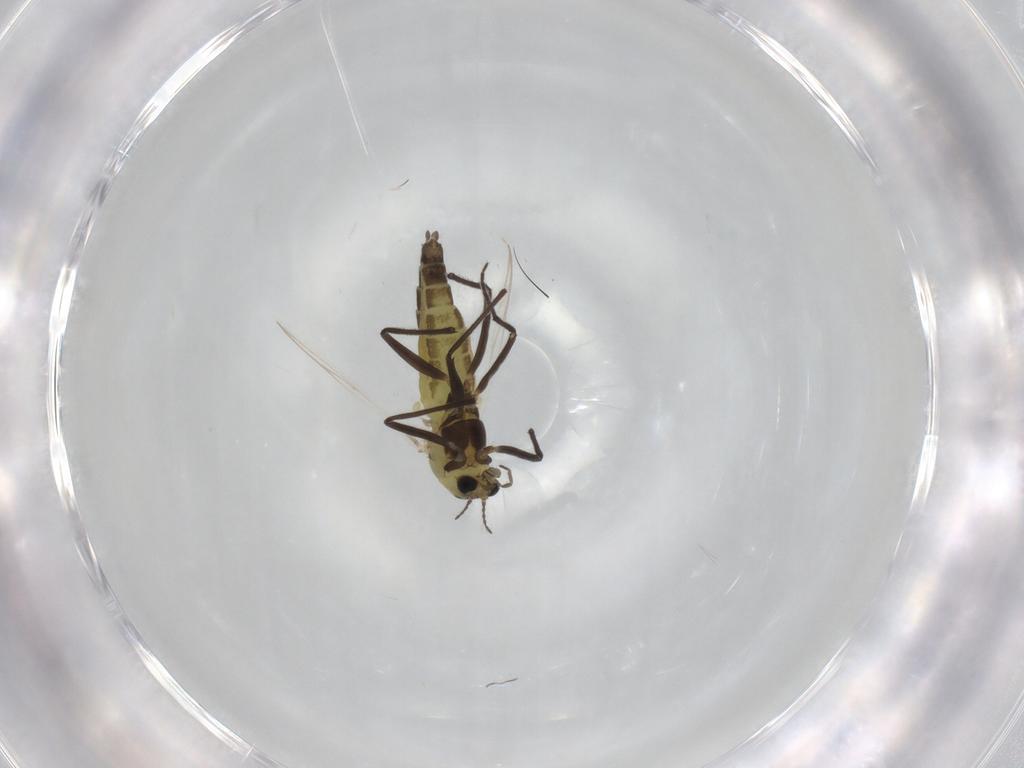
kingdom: Animalia
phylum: Arthropoda
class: Insecta
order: Diptera
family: Chironomidae
